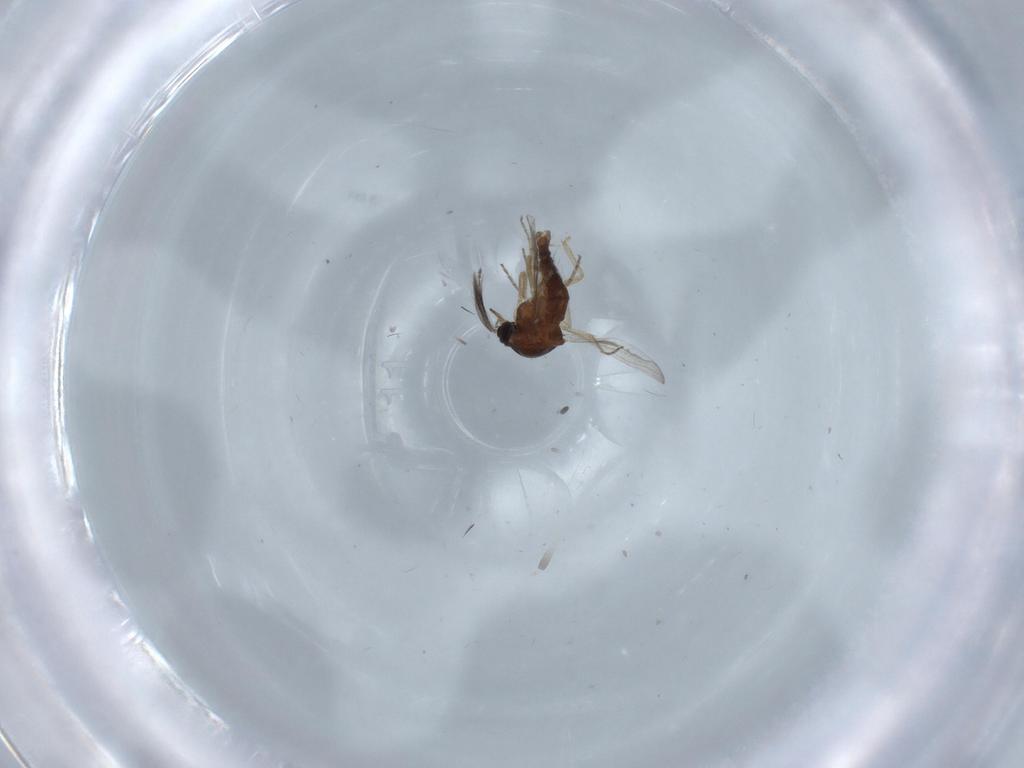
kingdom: Animalia
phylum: Arthropoda
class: Insecta
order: Diptera
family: Ceratopogonidae
